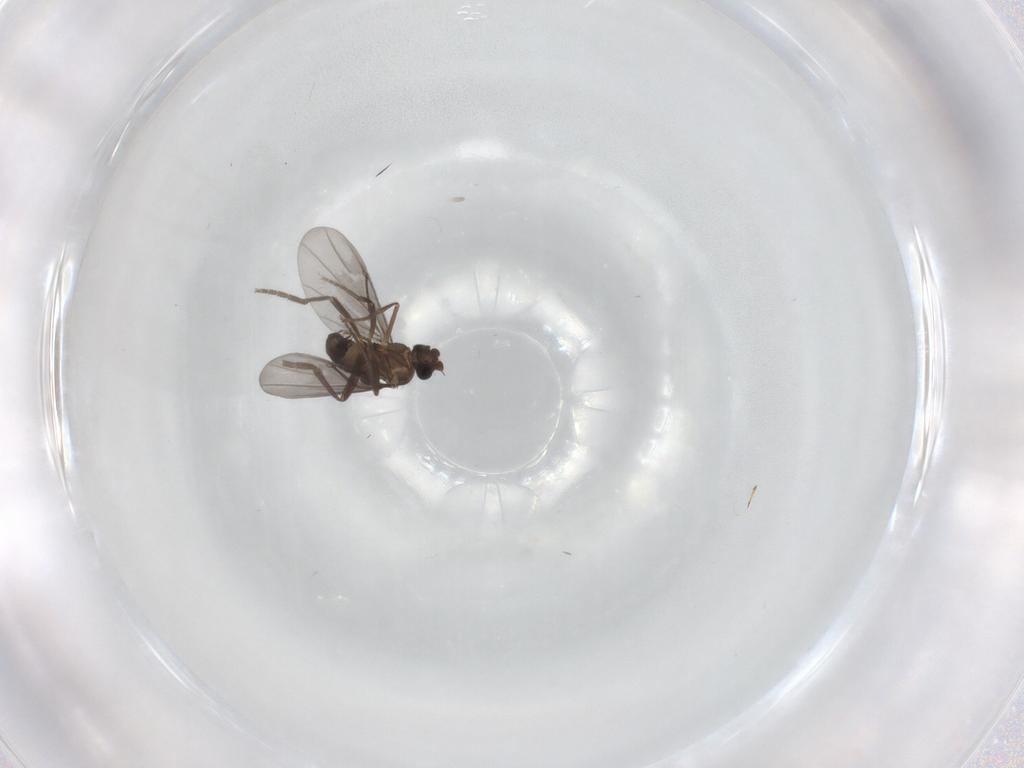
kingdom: Animalia
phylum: Arthropoda
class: Insecta
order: Diptera
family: Phoridae
